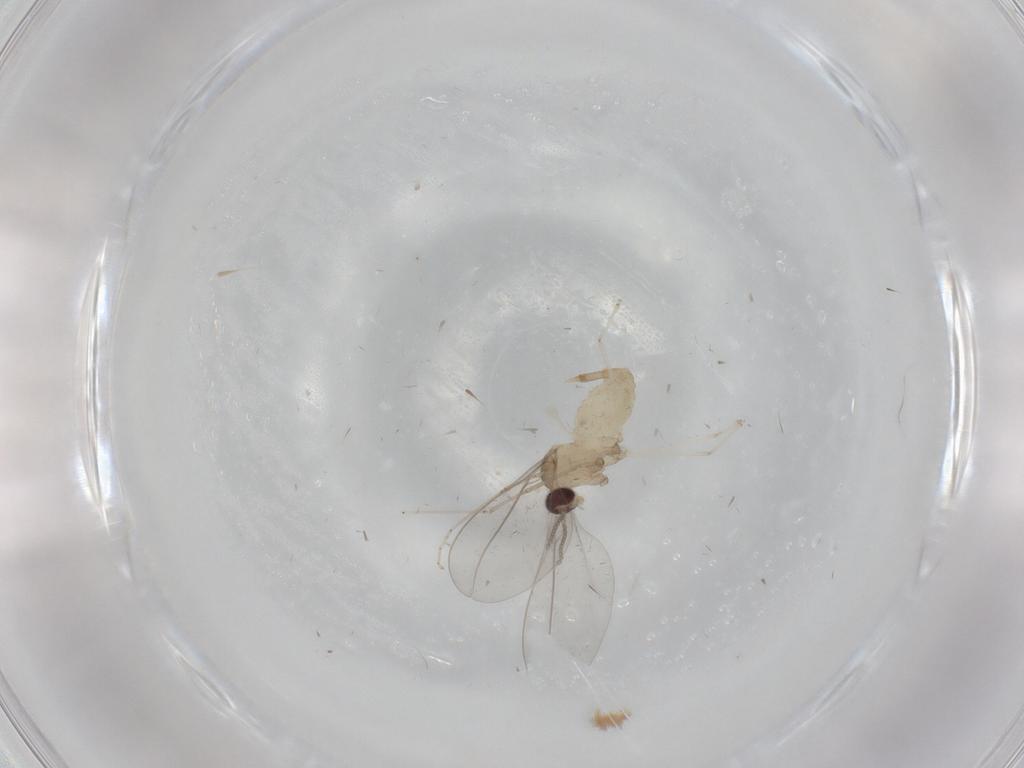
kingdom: Animalia
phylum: Arthropoda
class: Insecta
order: Diptera
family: Cecidomyiidae
